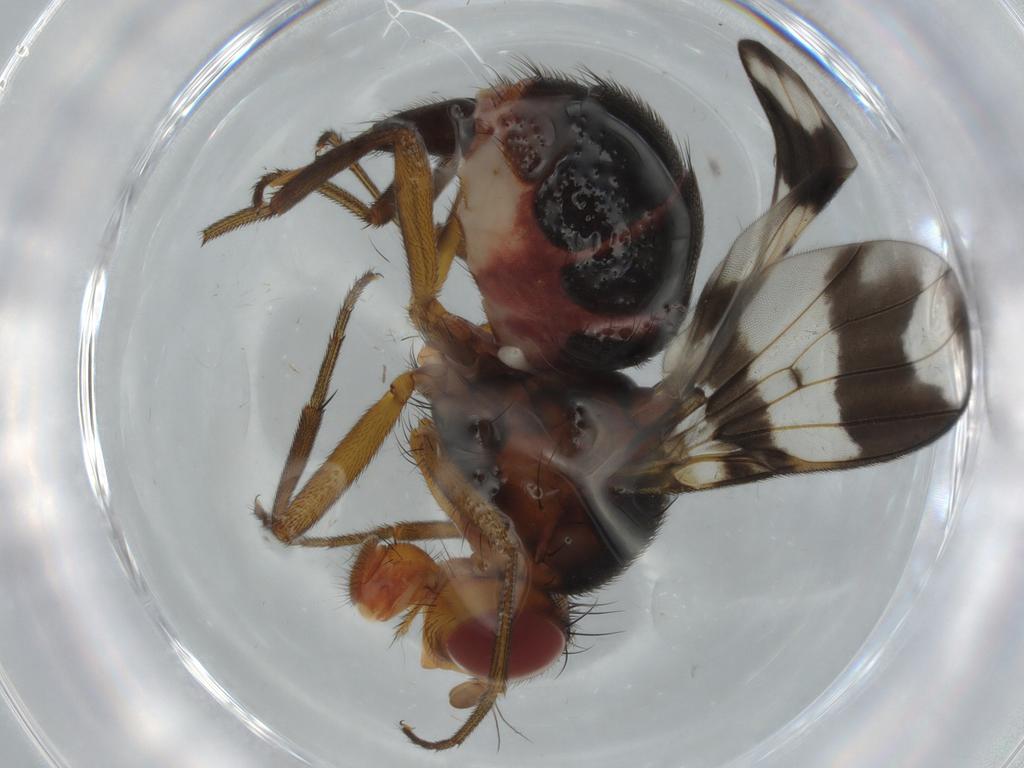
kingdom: Animalia
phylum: Arthropoda
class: Insecta
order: Diptera
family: Richardiidae
